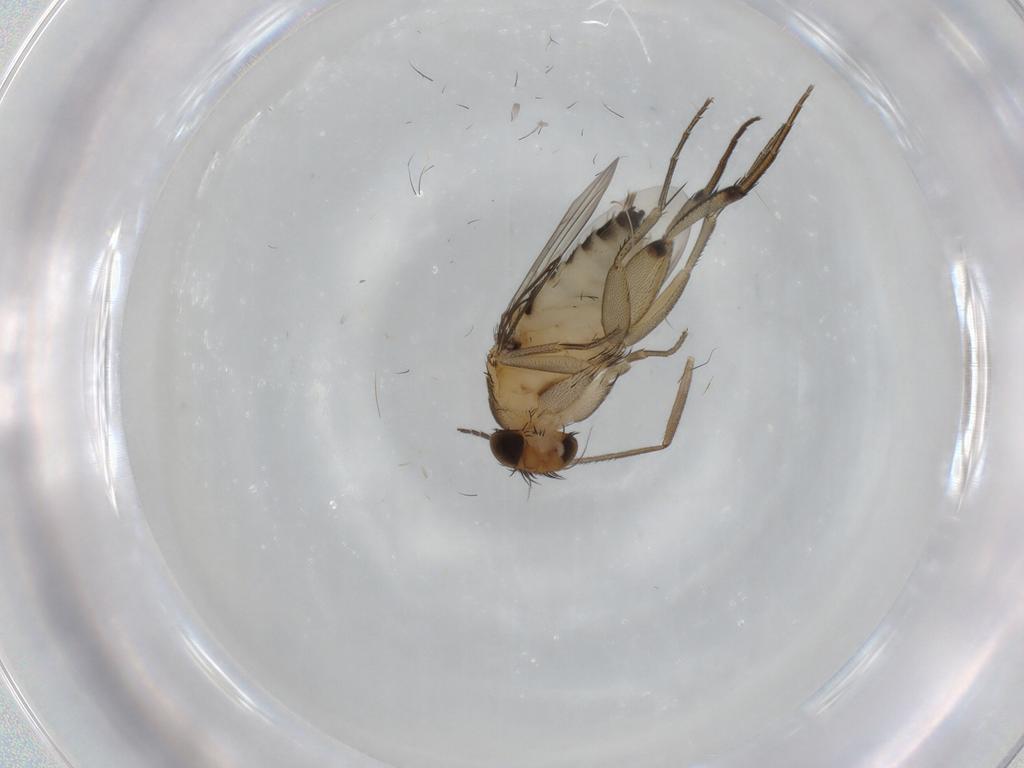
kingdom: Animalia
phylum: Arthropoda
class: Insecta
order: Diptera
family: Phoridae
